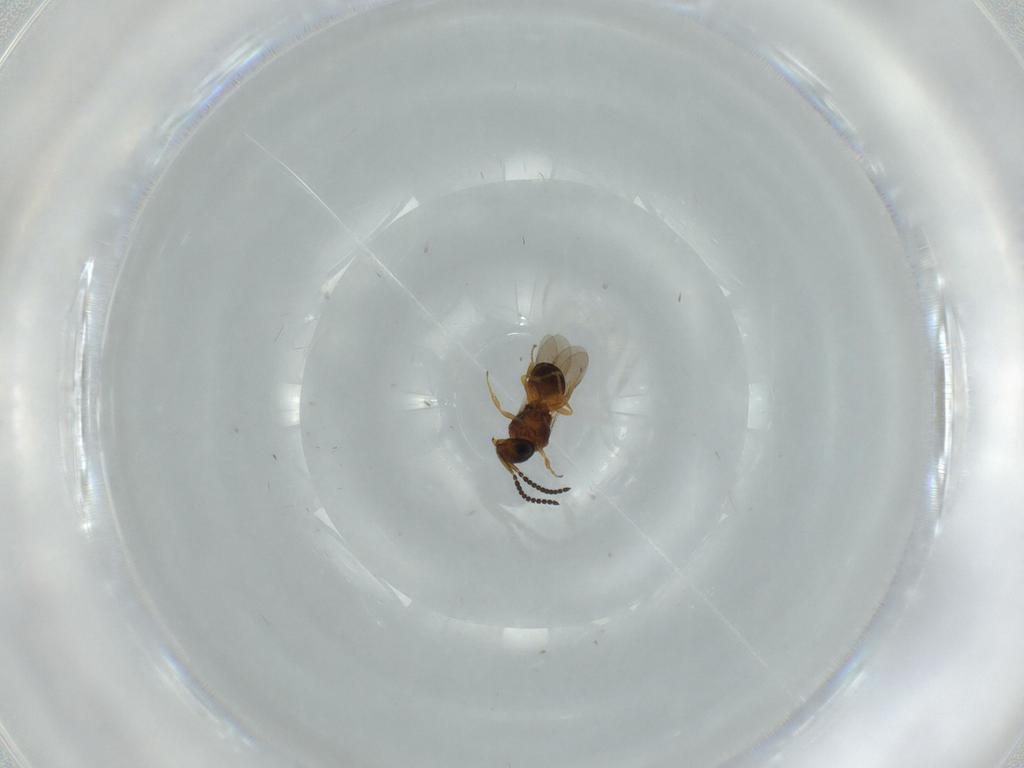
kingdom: Animalia
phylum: Arthropoda
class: Insecta
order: Hymenoptera
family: Scelionidae
